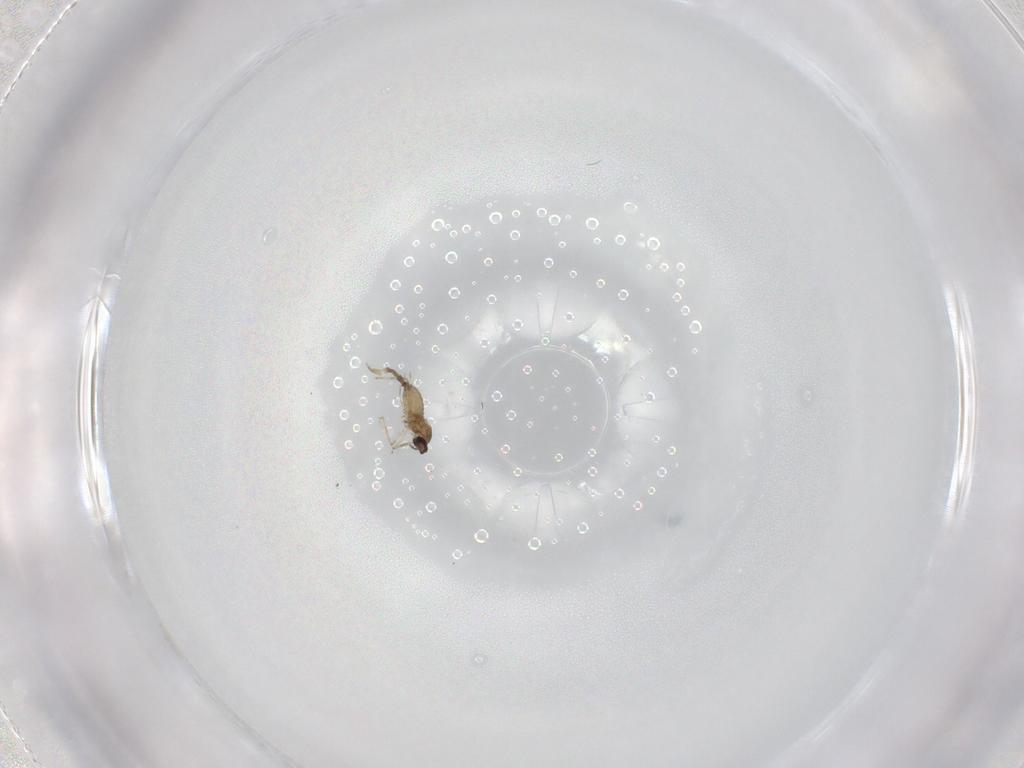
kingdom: Animalia
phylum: Arthropoda
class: Insecta
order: Diptera
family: Cecidomyiidae
